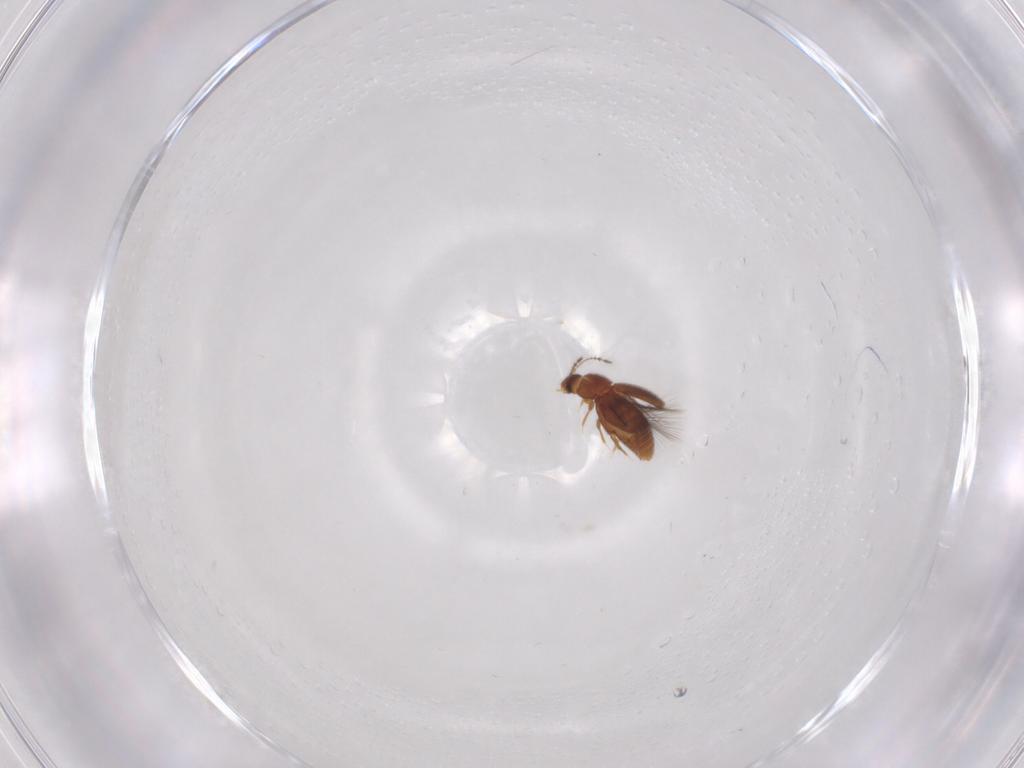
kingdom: Animalia
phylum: Arthropoda
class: Insecta
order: Coleoptera
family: Ptiliidae
